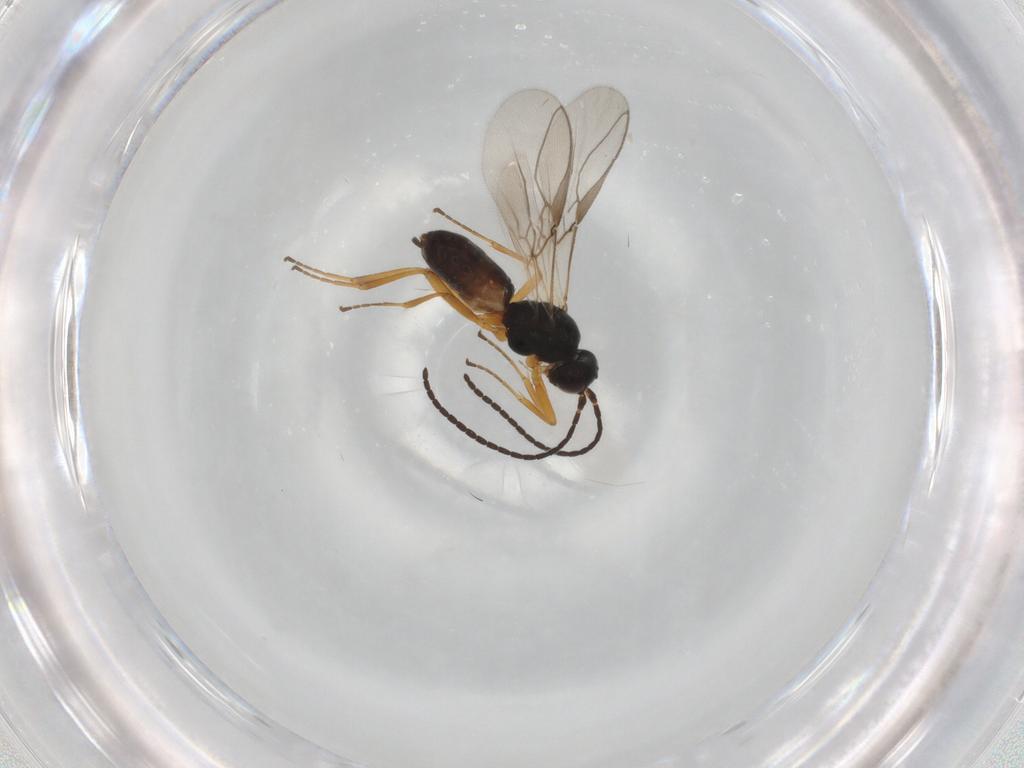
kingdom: Animalia
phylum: Arthropoda
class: Insecta
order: Hymenoptera
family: Braconidae
